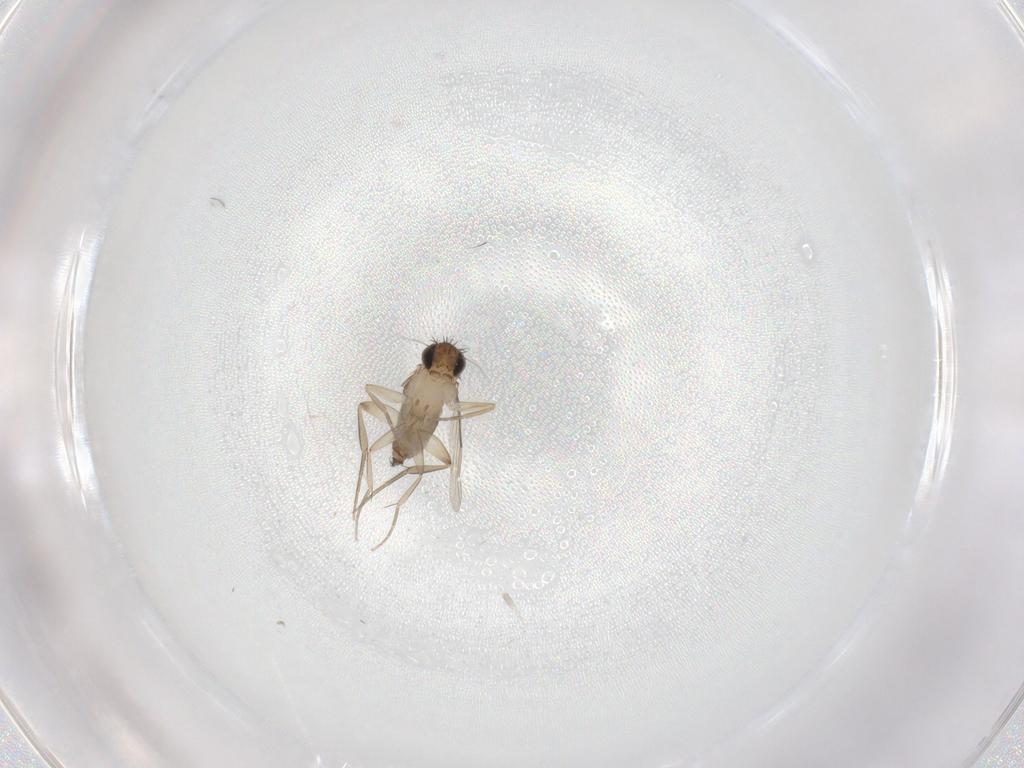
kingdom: Animalia
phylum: Arthropoda
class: Insecta
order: Diptera
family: Phoridae
